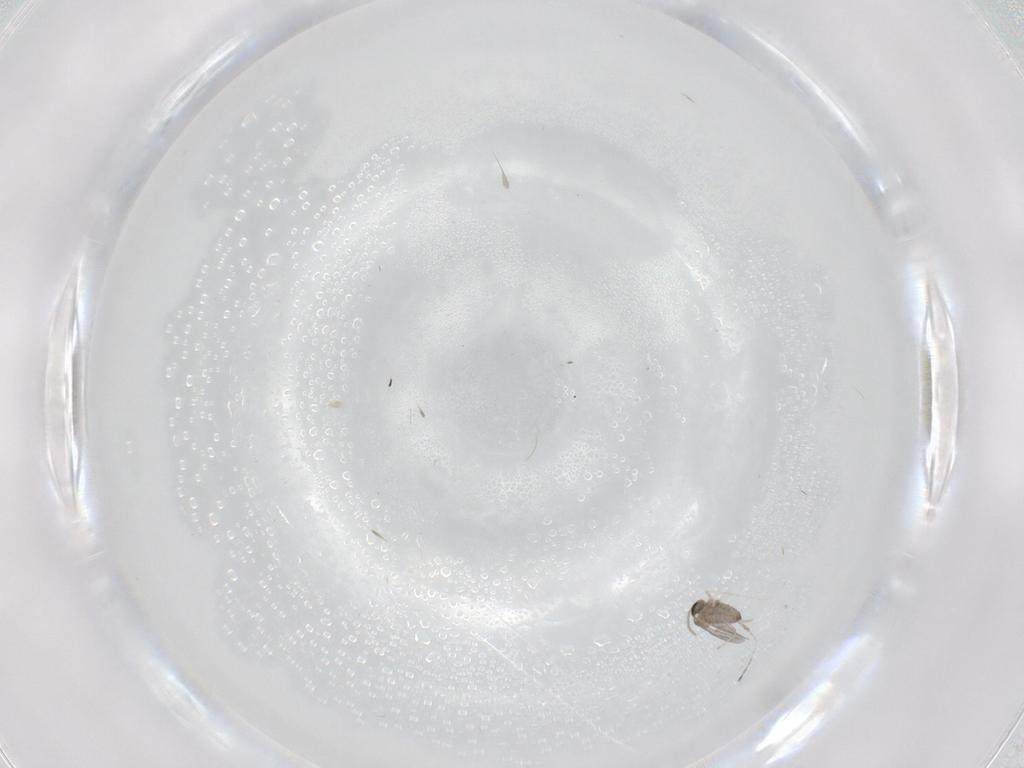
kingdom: Animalia
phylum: Arthropoda
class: Insecta
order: Diptera
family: Cecidomyiidae
